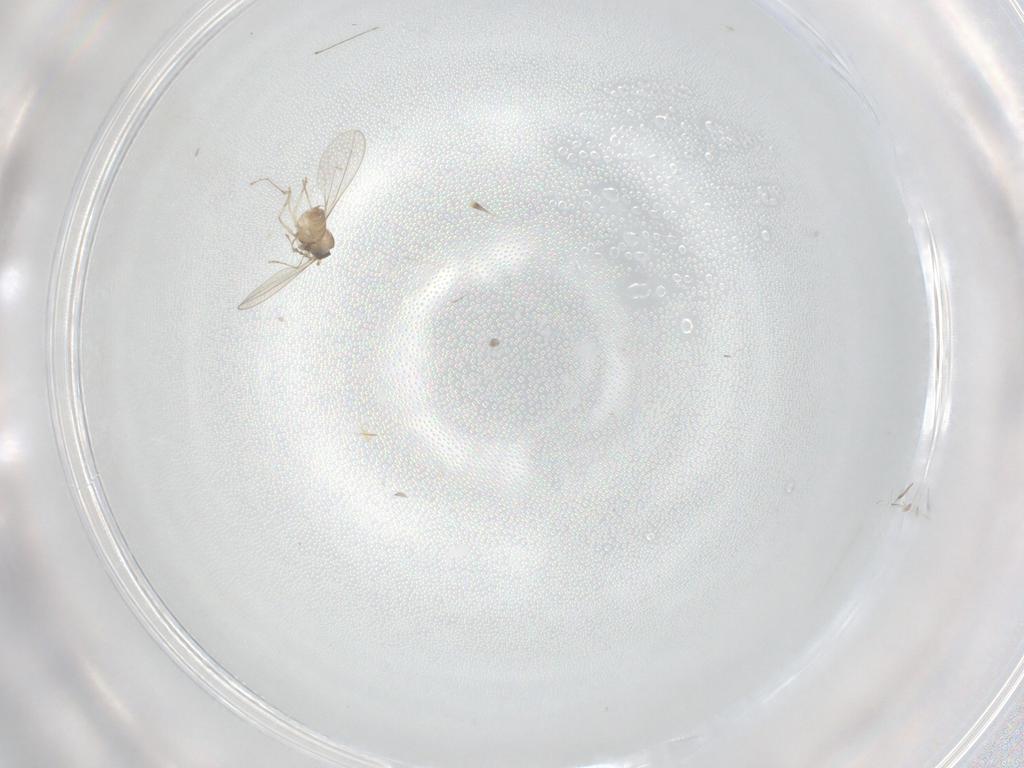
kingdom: Animalia
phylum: Arthropoda
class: Insecta
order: Diptera
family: Cecidomyiidae
